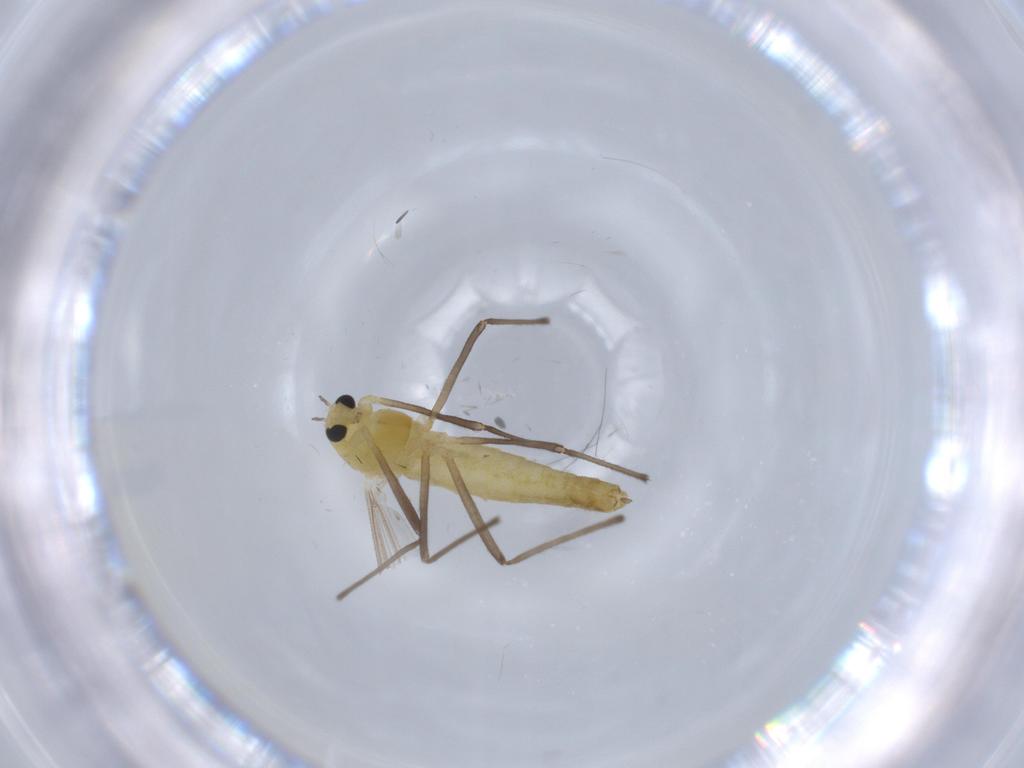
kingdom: Animalia
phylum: Arthropoda
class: Insecta
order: Diptera
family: Chironomidae
